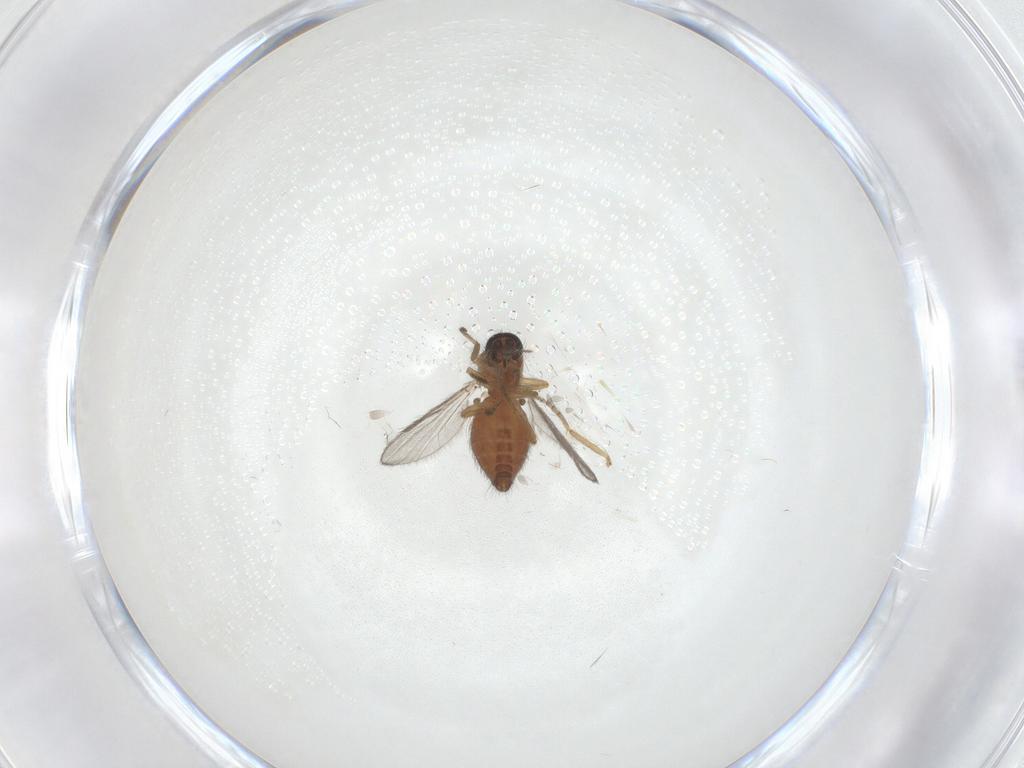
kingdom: Animalia
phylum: Arthropoda
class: Insecta
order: Diptera
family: Ceratopogonidae
